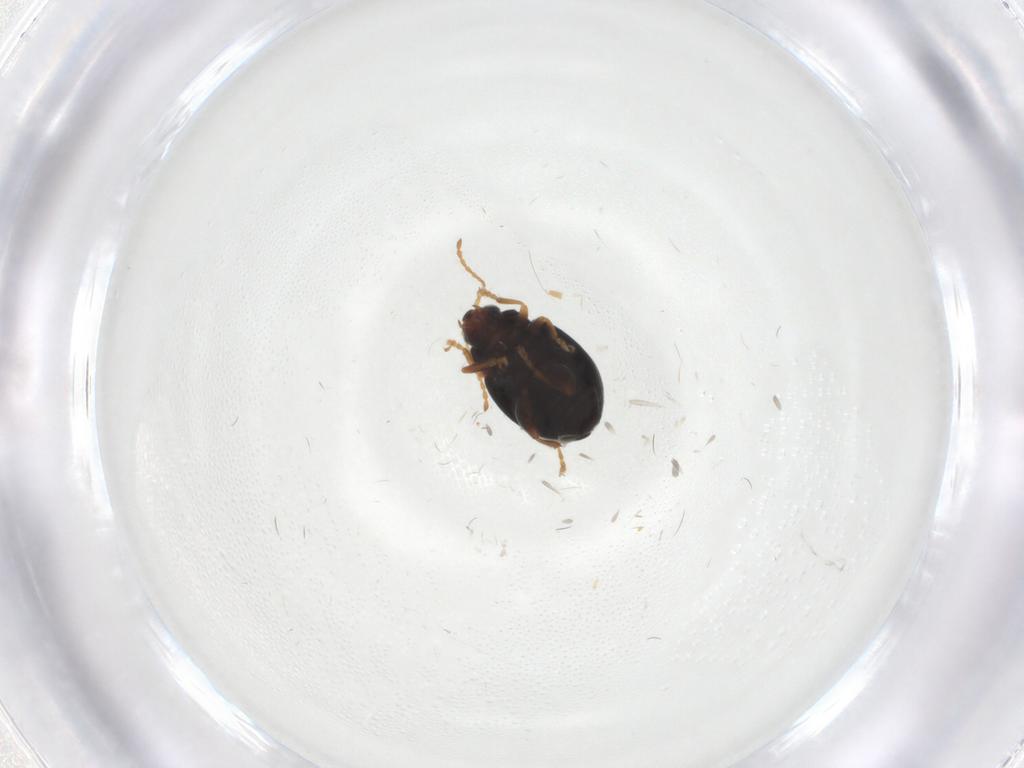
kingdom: Animalia
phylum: Arthropoda
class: Insecta
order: Coleoptera
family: Chrysomelidae
